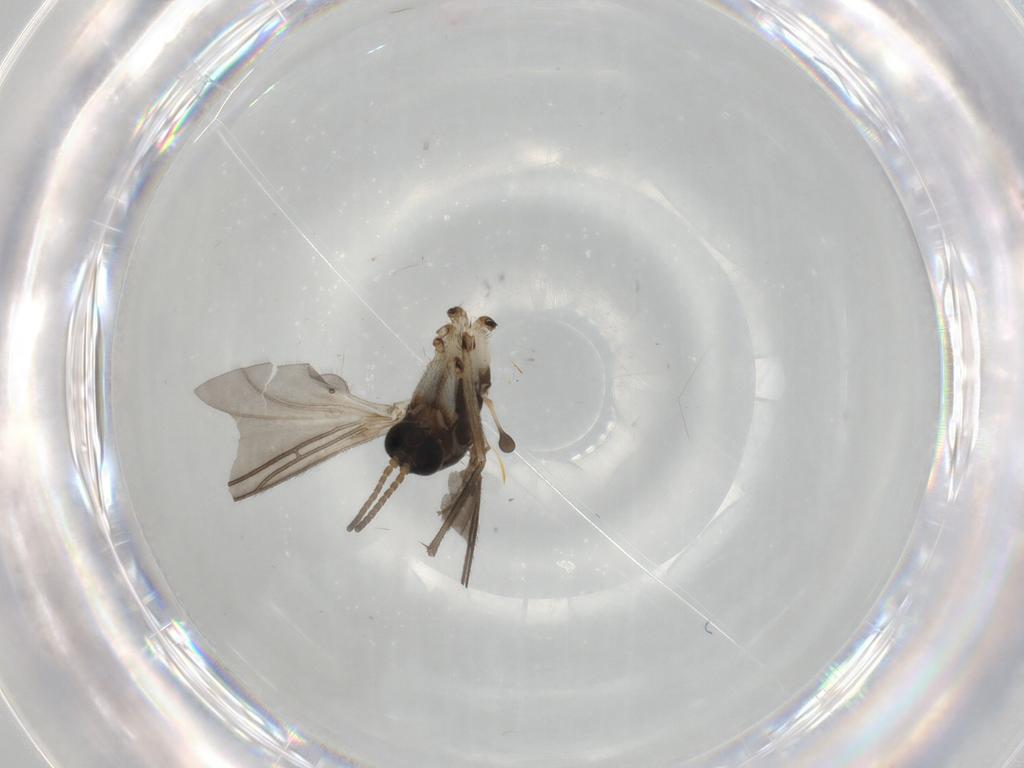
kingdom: Animalia
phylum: Arthropoda
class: Insecta
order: Diptera
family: Sciaridae
